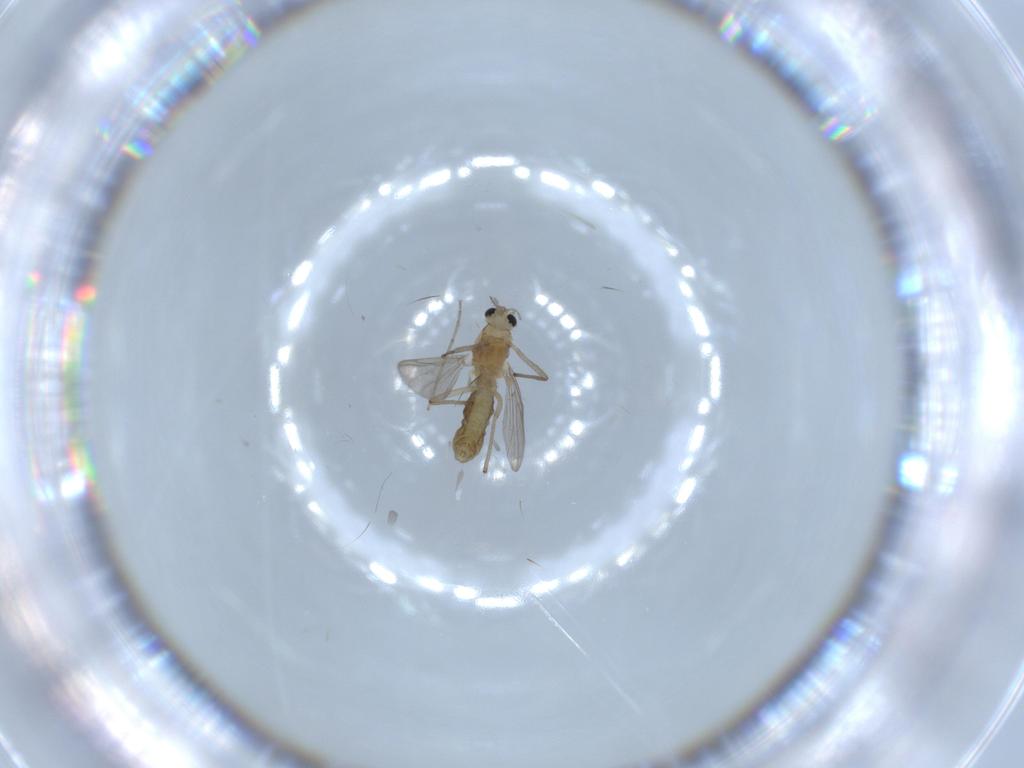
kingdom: Animalia
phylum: Arthropoda
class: Insecta
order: Diptera
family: Sciaridae
